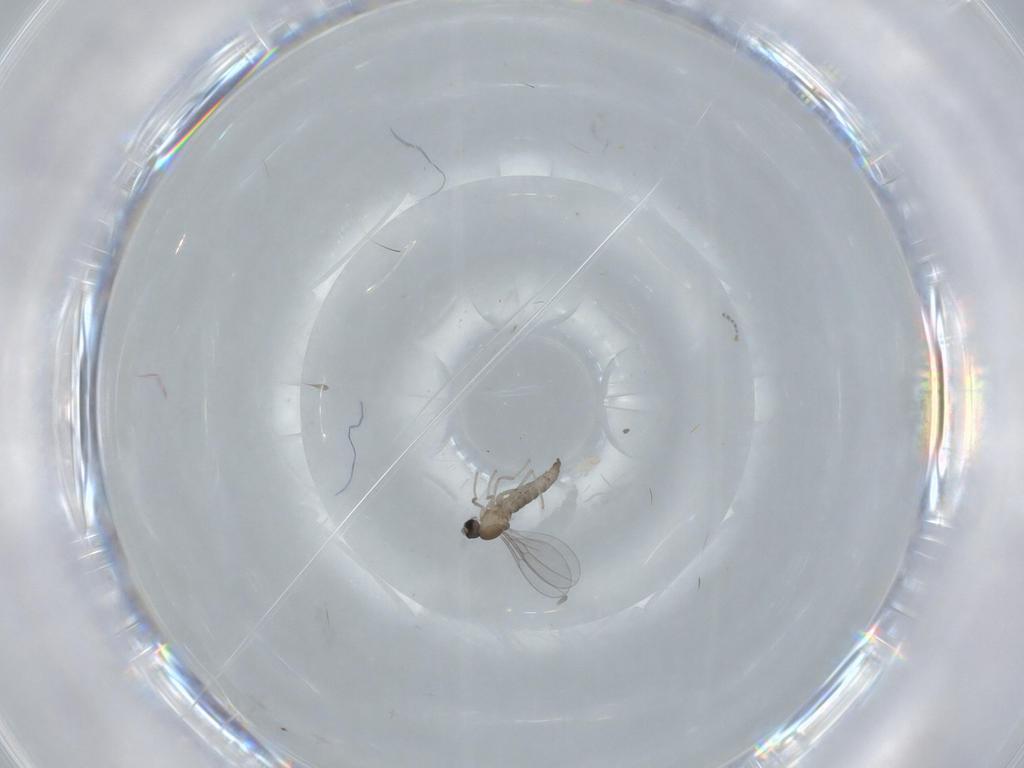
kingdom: Animalia
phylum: Arthropoda
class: Insecta
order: Diptera
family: Cecidomyiidae
